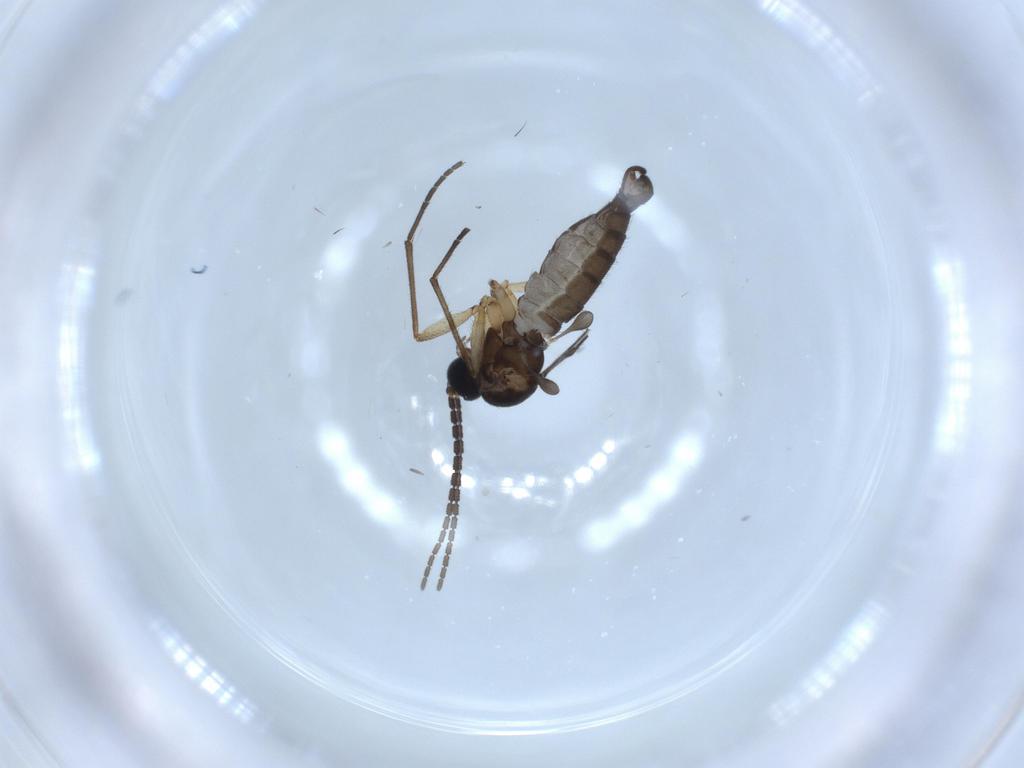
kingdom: Animalia
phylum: Arthropoda
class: Insecta
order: Diptera
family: Sciaridae
